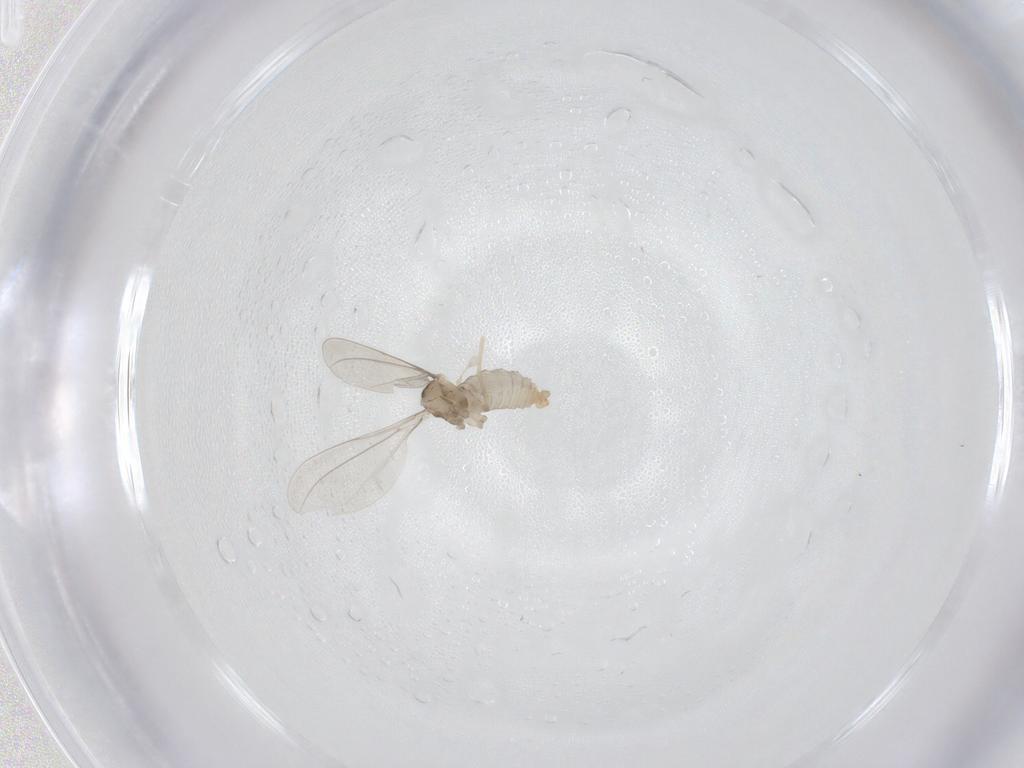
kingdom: Animalia
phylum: Arthropoda
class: Insecta
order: Diptera
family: Cecidomyiidae
